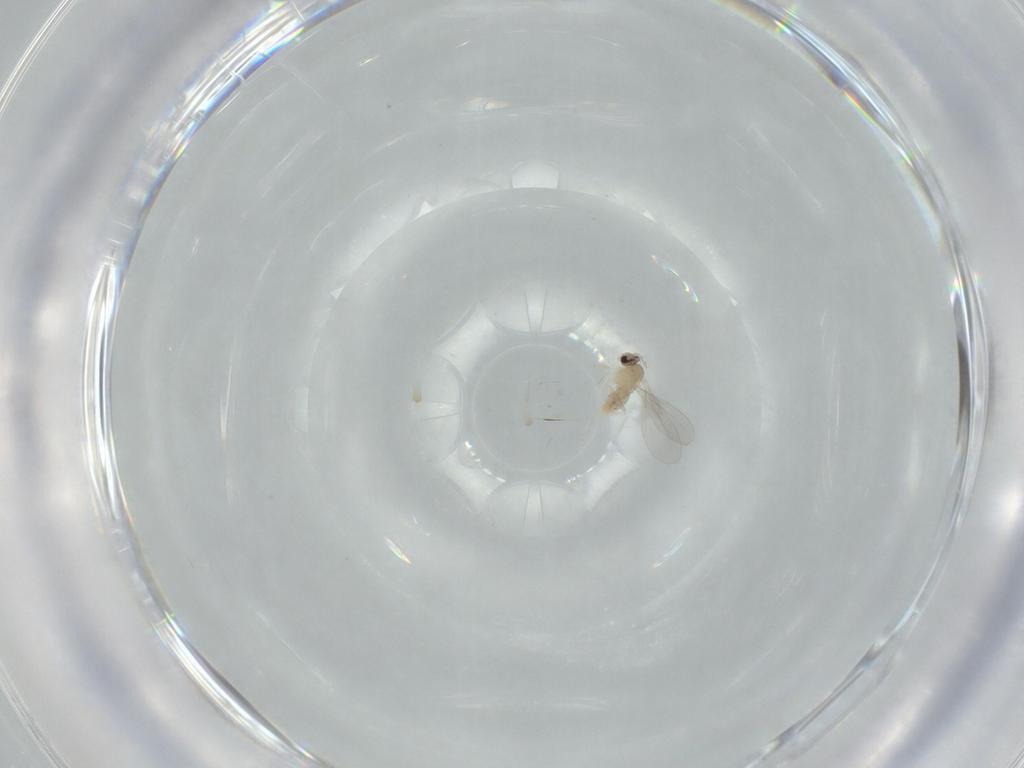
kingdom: Animalia
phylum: Arthropoda
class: Insecta
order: Diptera
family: Cecidomyiidae
